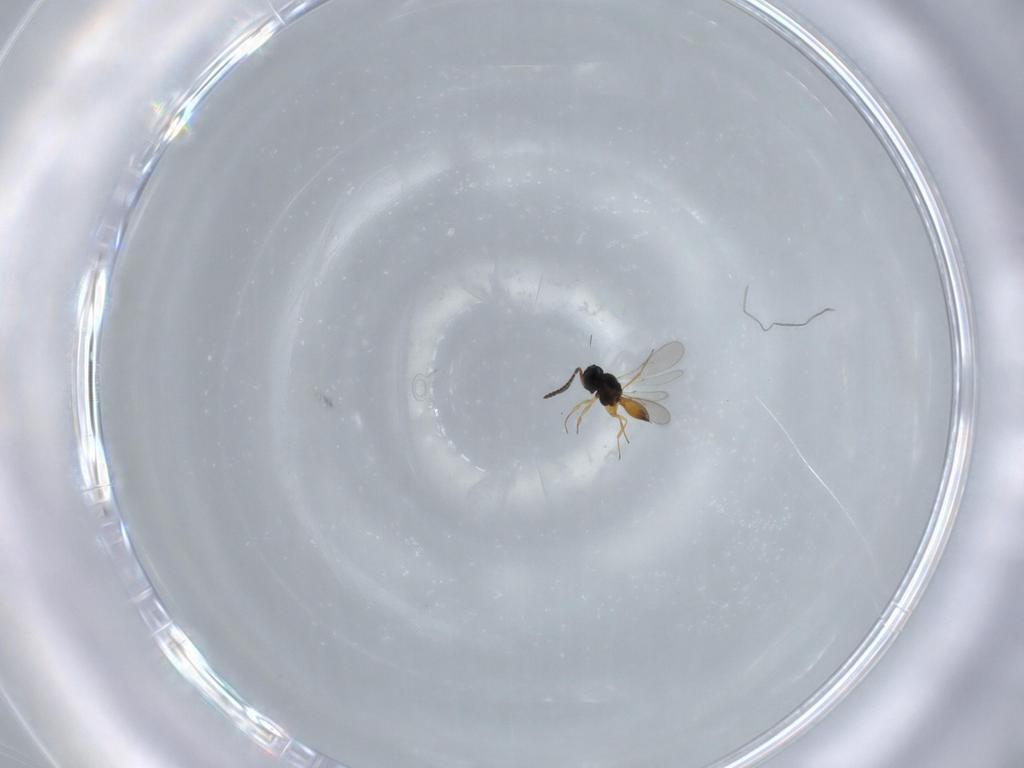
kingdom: Animalia
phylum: Arthropoda
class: Insecta
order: Hymenoptera
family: Scelionidae
